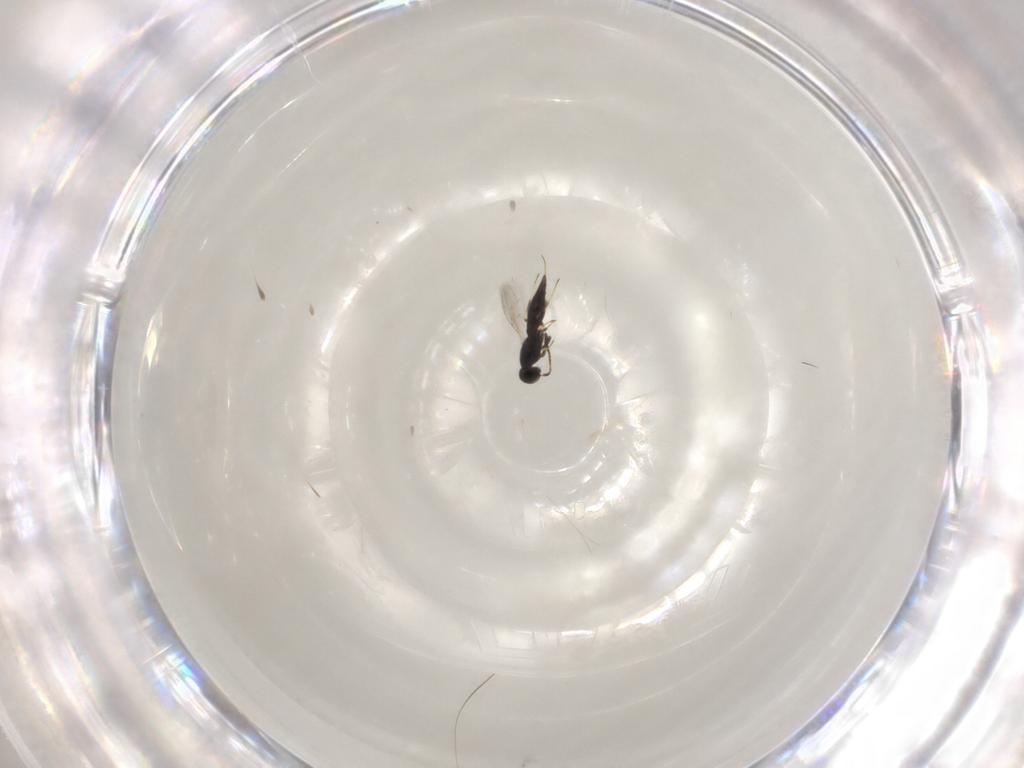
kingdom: Animalia
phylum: Arthropoda
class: Insecta
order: Hymenoptera
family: Scelionidae
